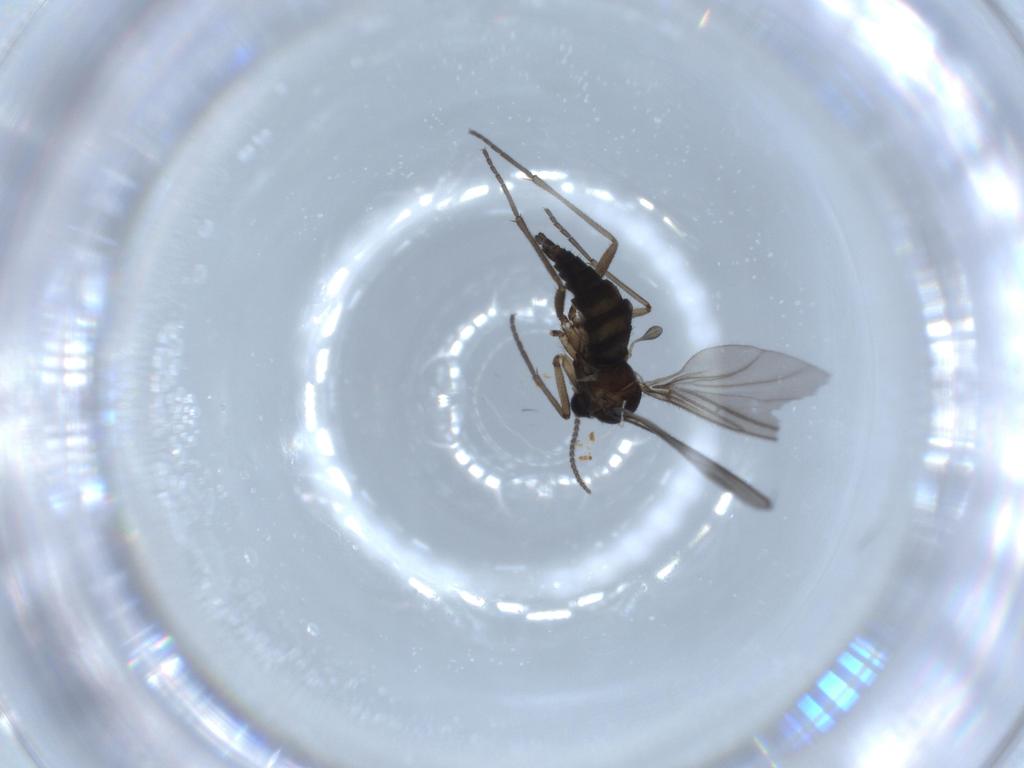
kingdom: Animalia
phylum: Arthropoda
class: Insecta
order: Diptera
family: Sciaridae
